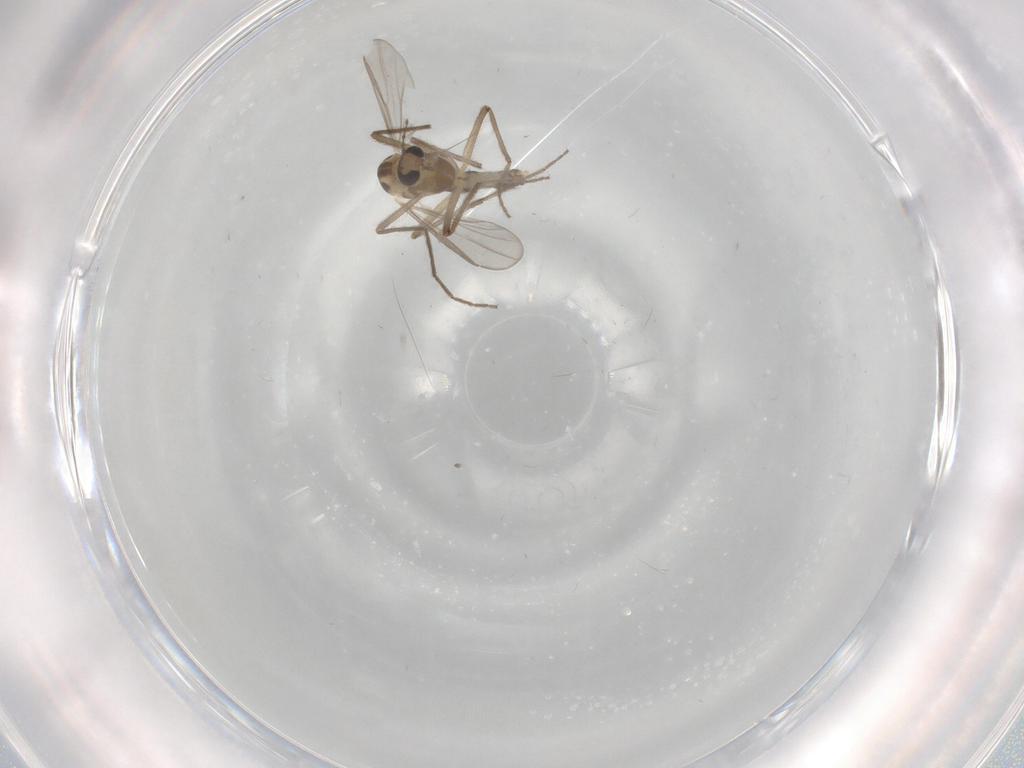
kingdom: Animalia
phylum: Arthropoda
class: Insecta
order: Diptera
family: Chironomidae
